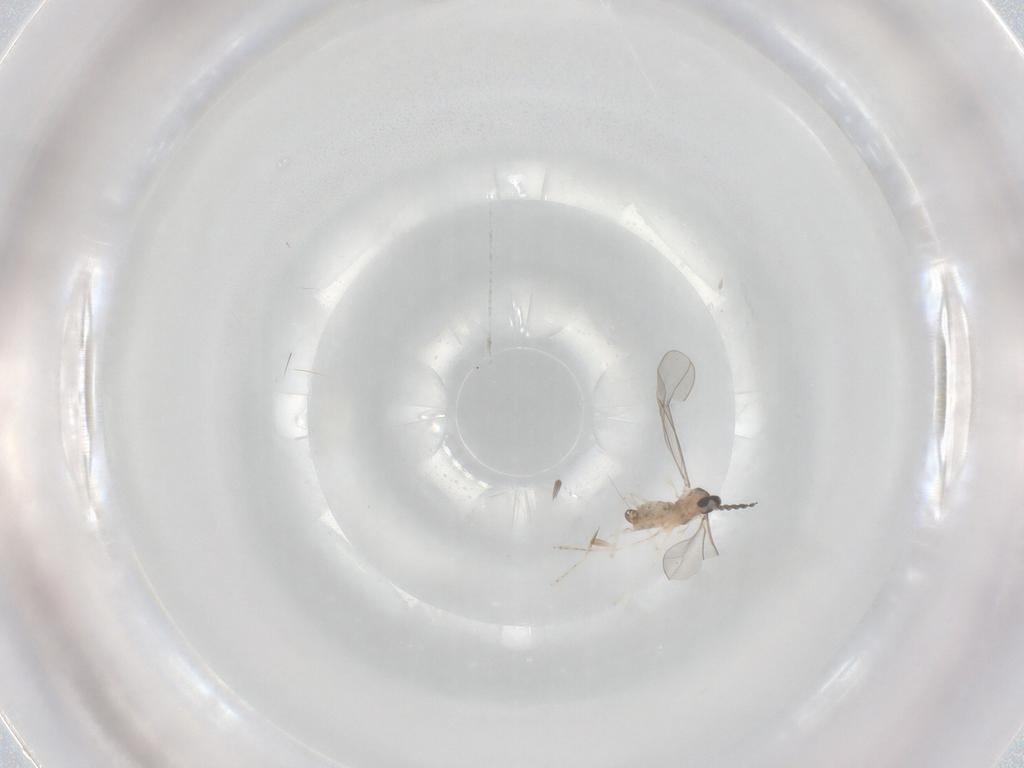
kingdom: Animalia
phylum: Arthropoda
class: Insecta
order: Diptera
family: Cecidomyiidae
